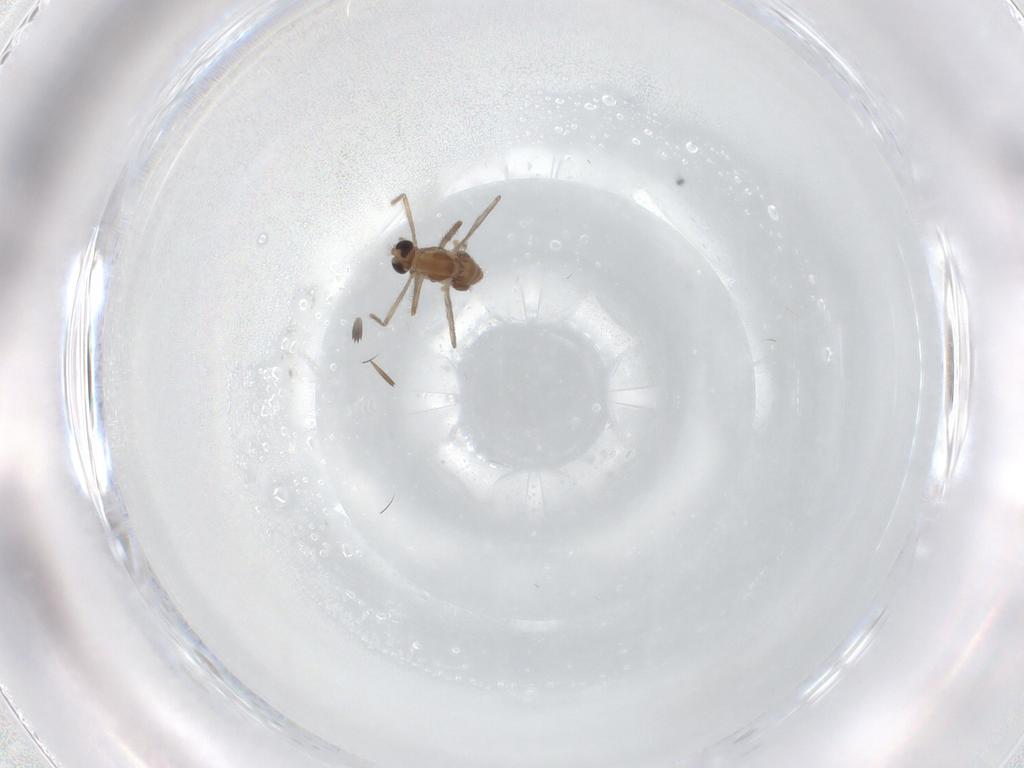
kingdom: Animalia
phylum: Arthropoda
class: Insecta
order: Diptera
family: Chironomidae
